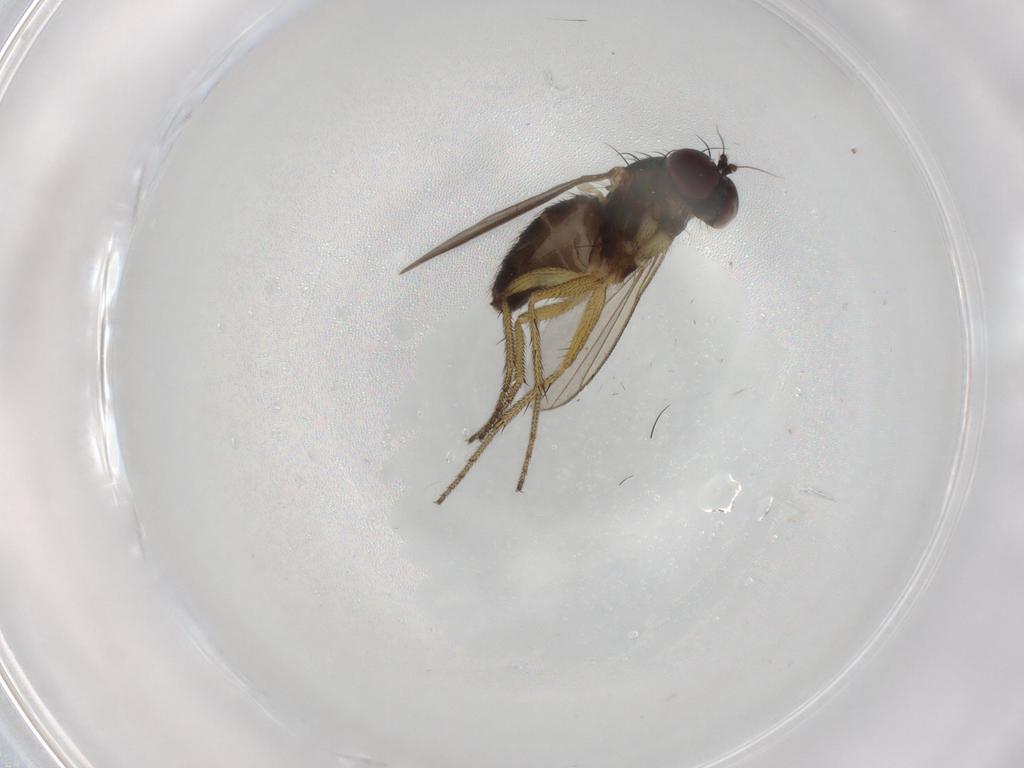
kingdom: Animalia
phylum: Arthropoda
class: Insecta
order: Diptera
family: Dolichopodidae
